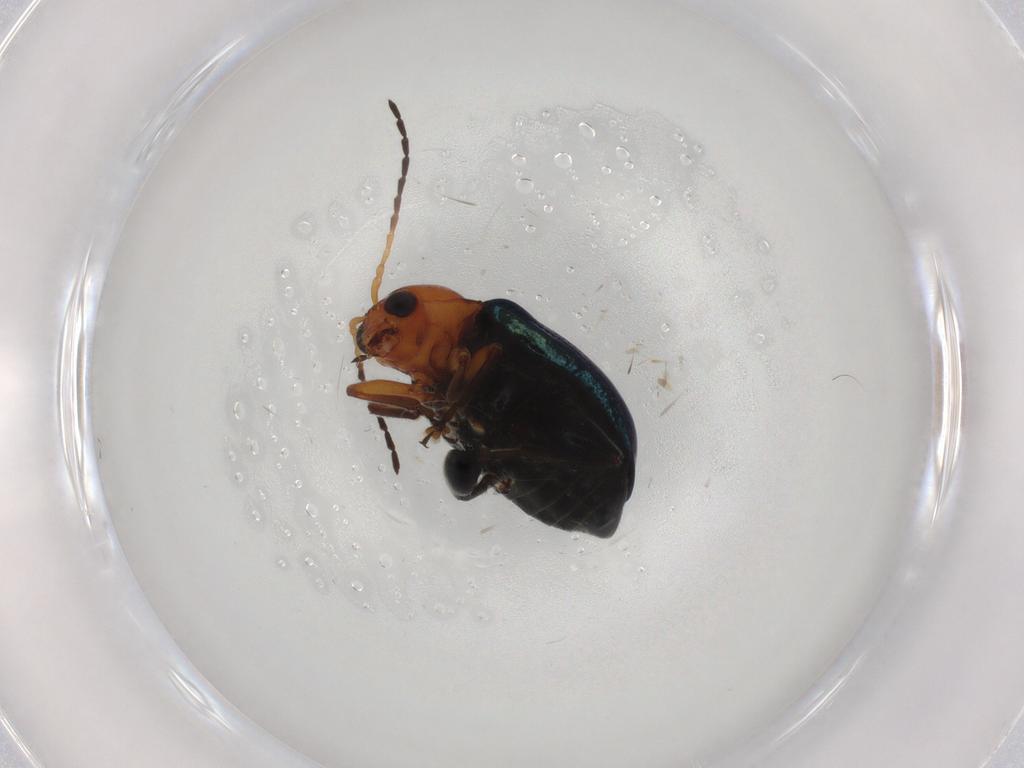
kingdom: Animalia
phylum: Arthropoda
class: Insecta
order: Coleoptera
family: Chrysomelidae
